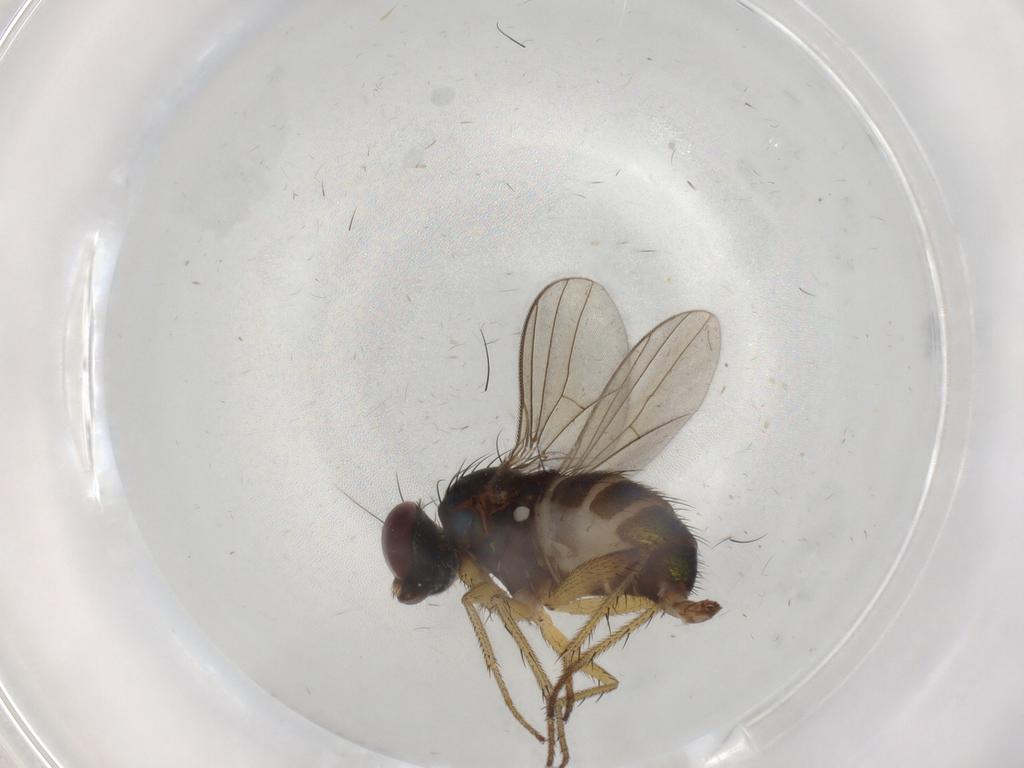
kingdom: Animalia
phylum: Arthropoda
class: Insecta
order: Diptera
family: Dolichopodidae
